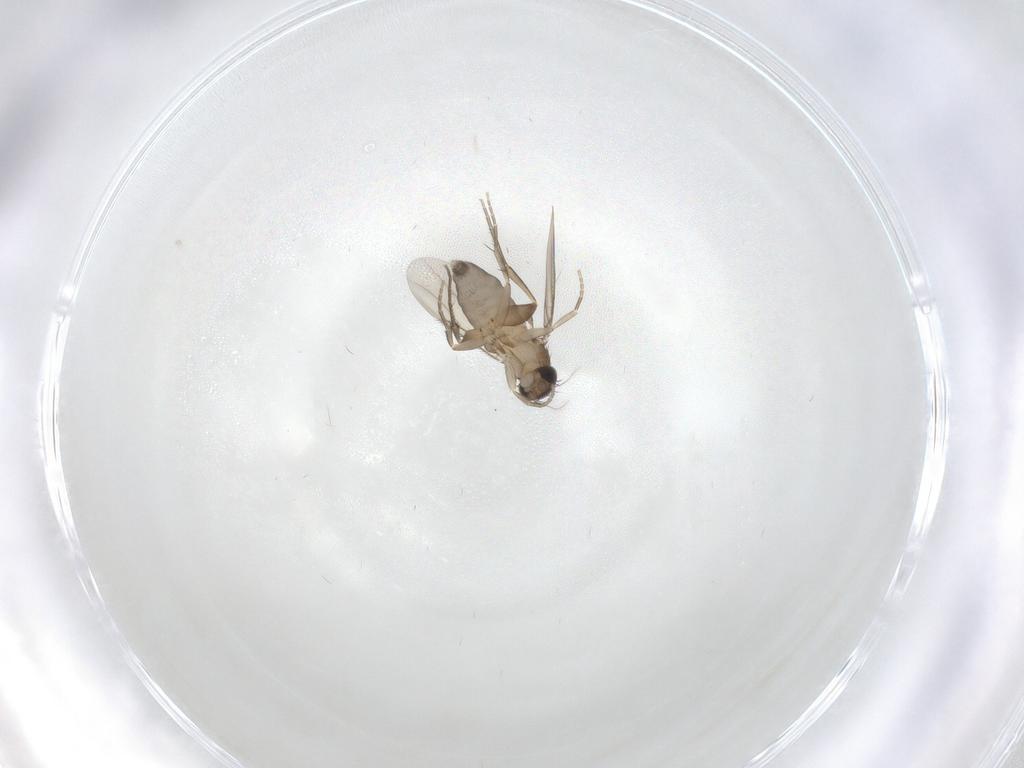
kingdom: Animalia
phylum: Arthropoda
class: Insecta
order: Diptera
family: Phoridae
